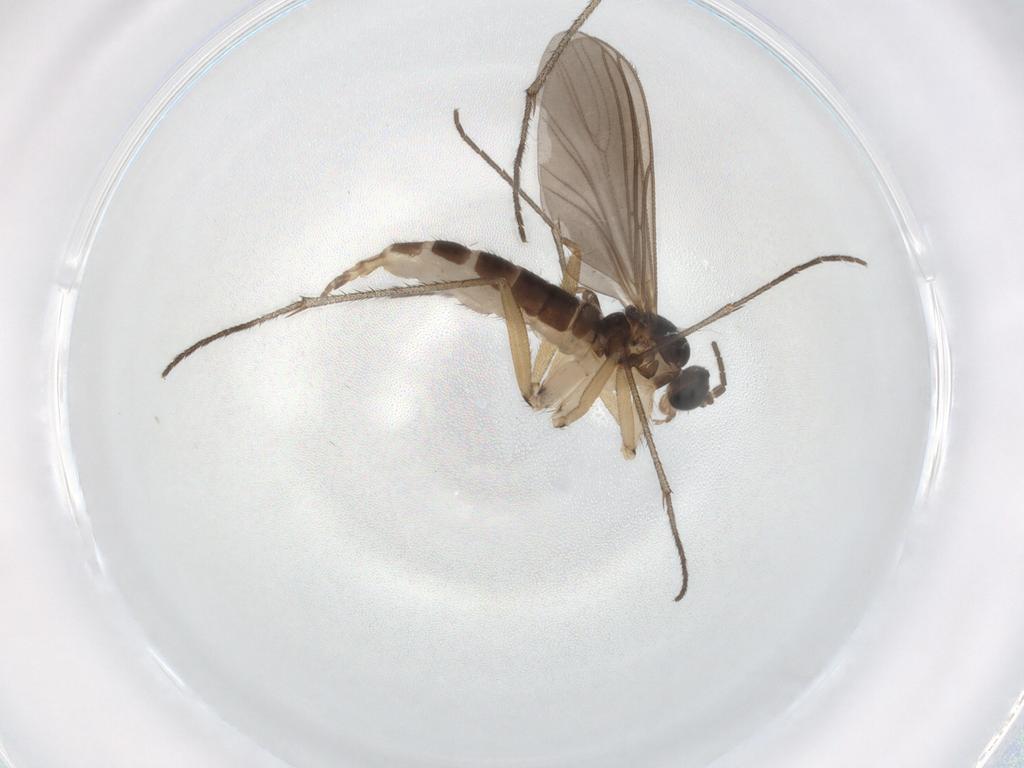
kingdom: Animalia
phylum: Arthropoda
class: Insecta
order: Diptera
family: Sciaridae
